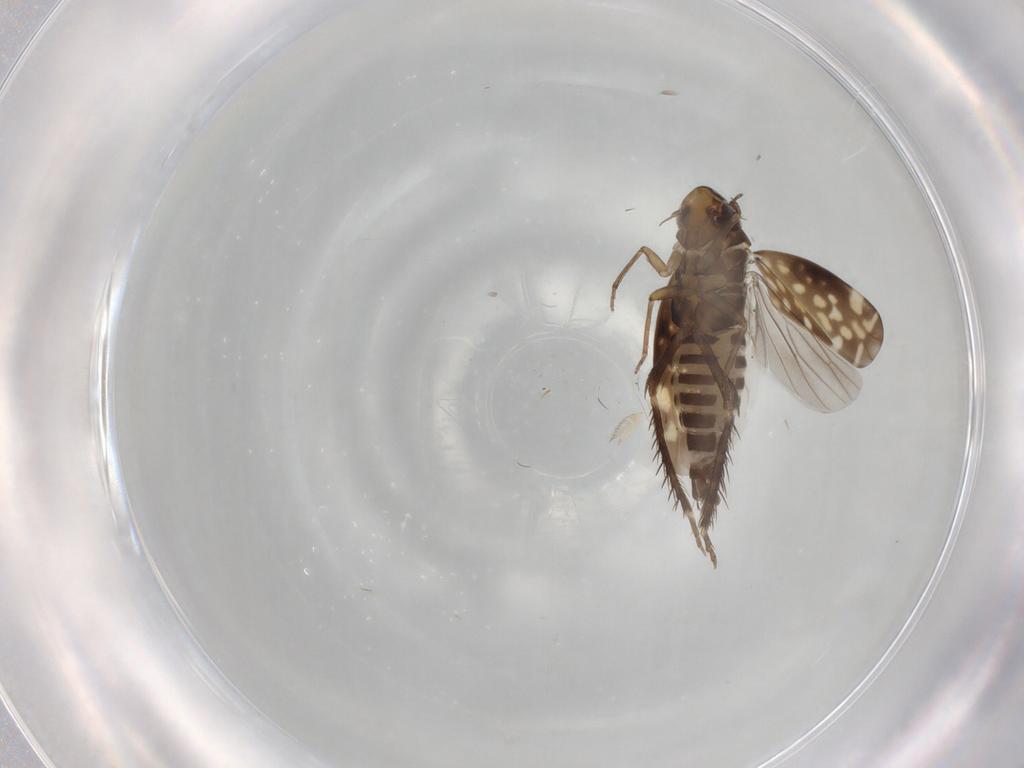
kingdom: Animalia
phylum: Arthropoda
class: Insecta
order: Hemiptera
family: Cicadellidae
